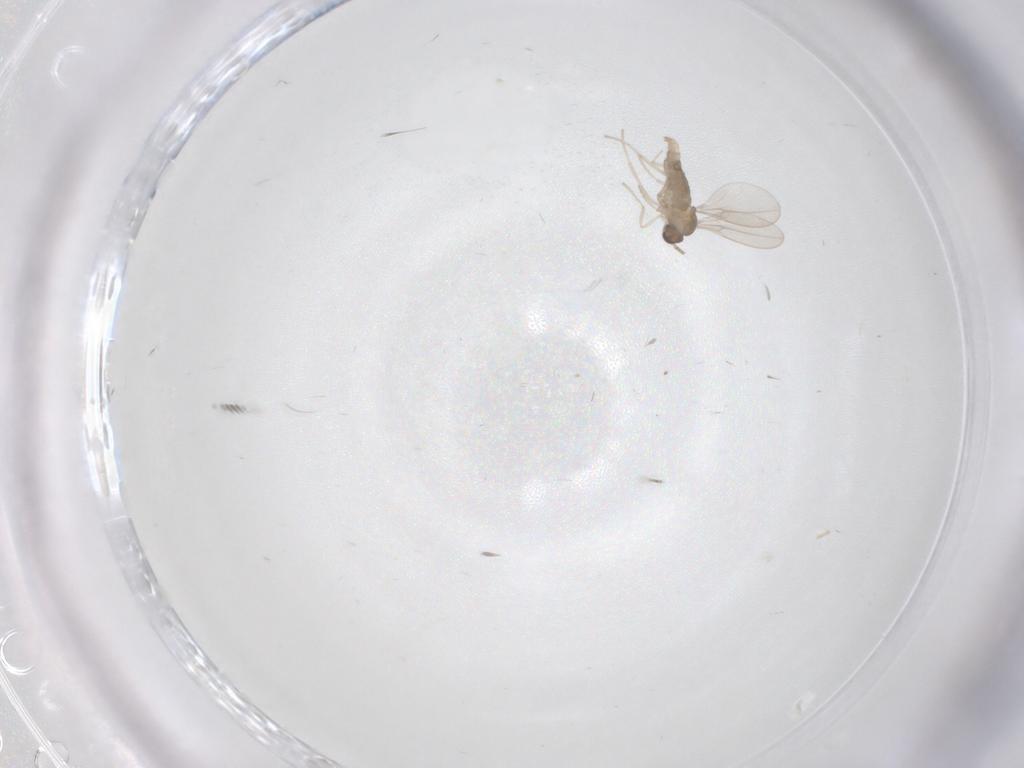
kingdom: Animalia
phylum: Arthropoda
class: Insecta
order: Diptera
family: Cecidomyiidae
